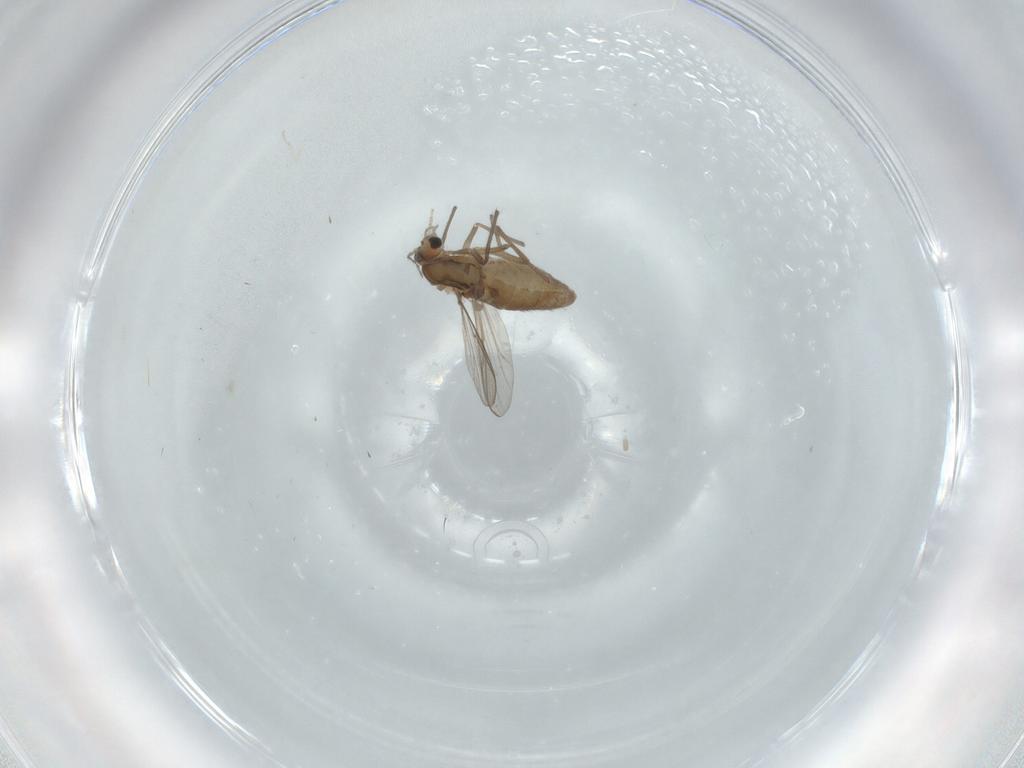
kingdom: Animalia
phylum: Arthropoda
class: Insecta
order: Diptera
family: Chironomidae
